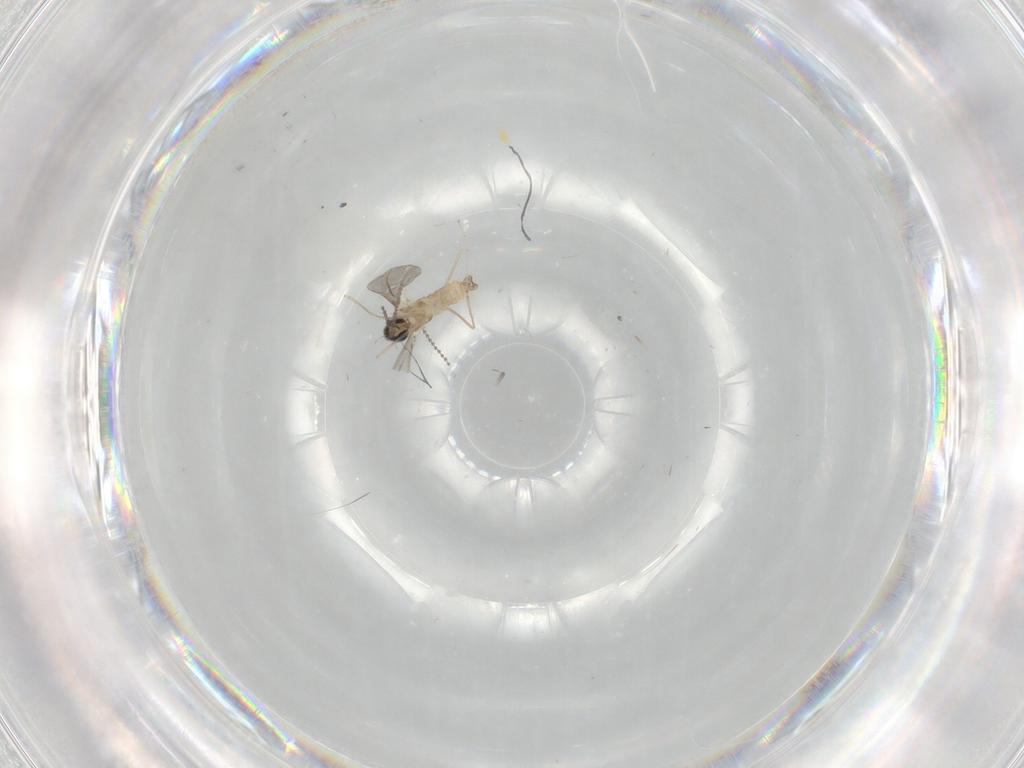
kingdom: Animalia
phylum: Arthropoda
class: Insecta
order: Diptera
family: Cecidomyiidae
